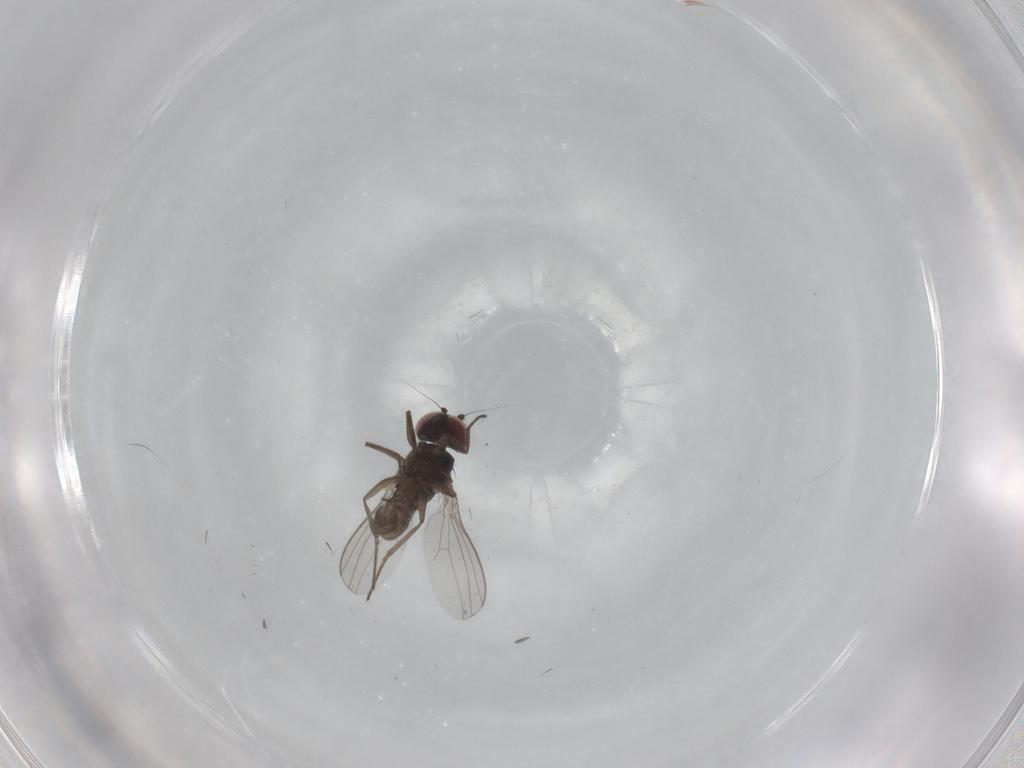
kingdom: Animalia
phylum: Arthropoda
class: Insecta
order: Diptera
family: Dolichopodidae
